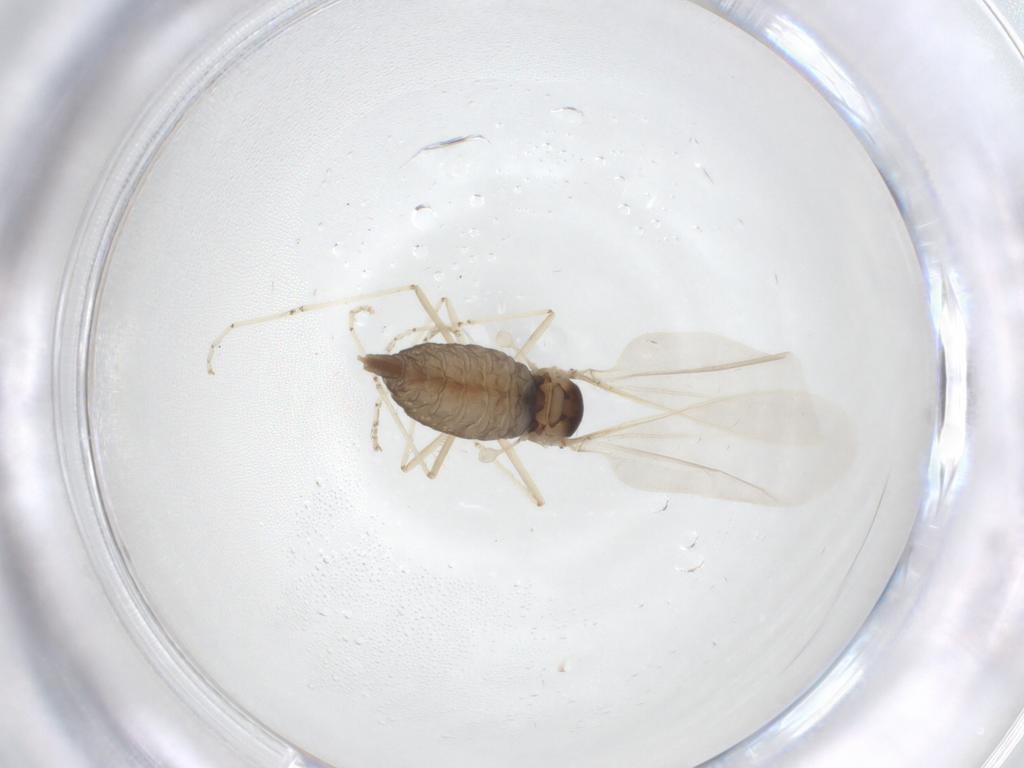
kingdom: Animalia
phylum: Arthropoda
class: Insecta
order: Diptera
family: Cecidomyiidae
